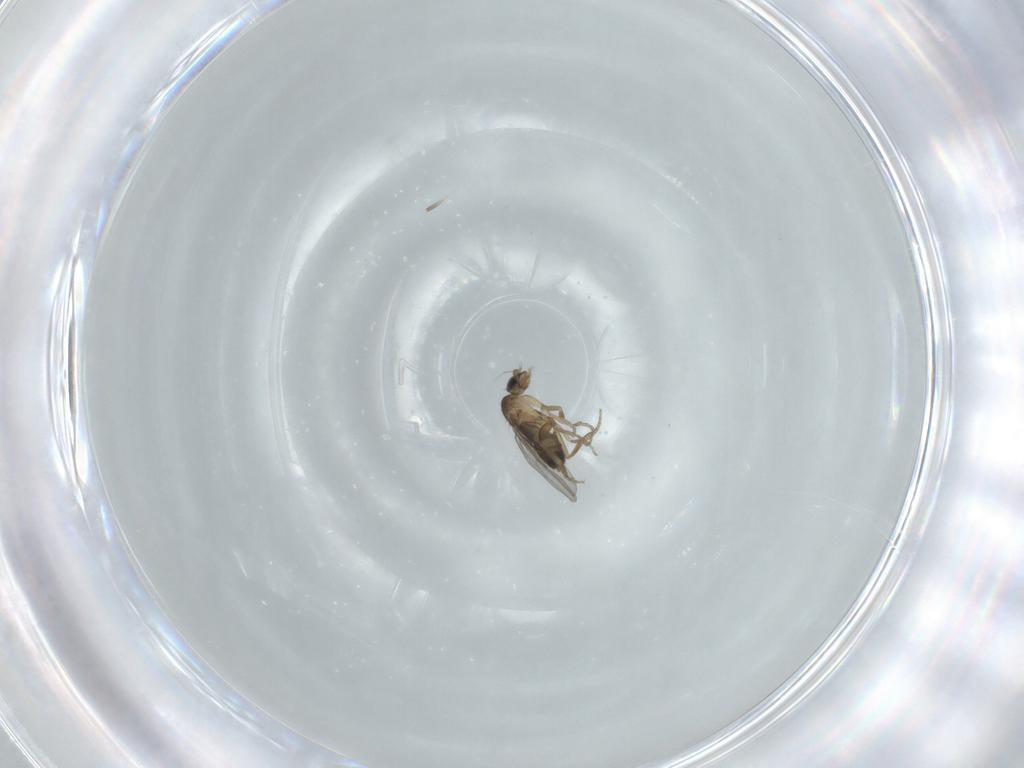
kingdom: Animalia
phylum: Arthropoda
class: Insecta
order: Diptera
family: Phoridae
